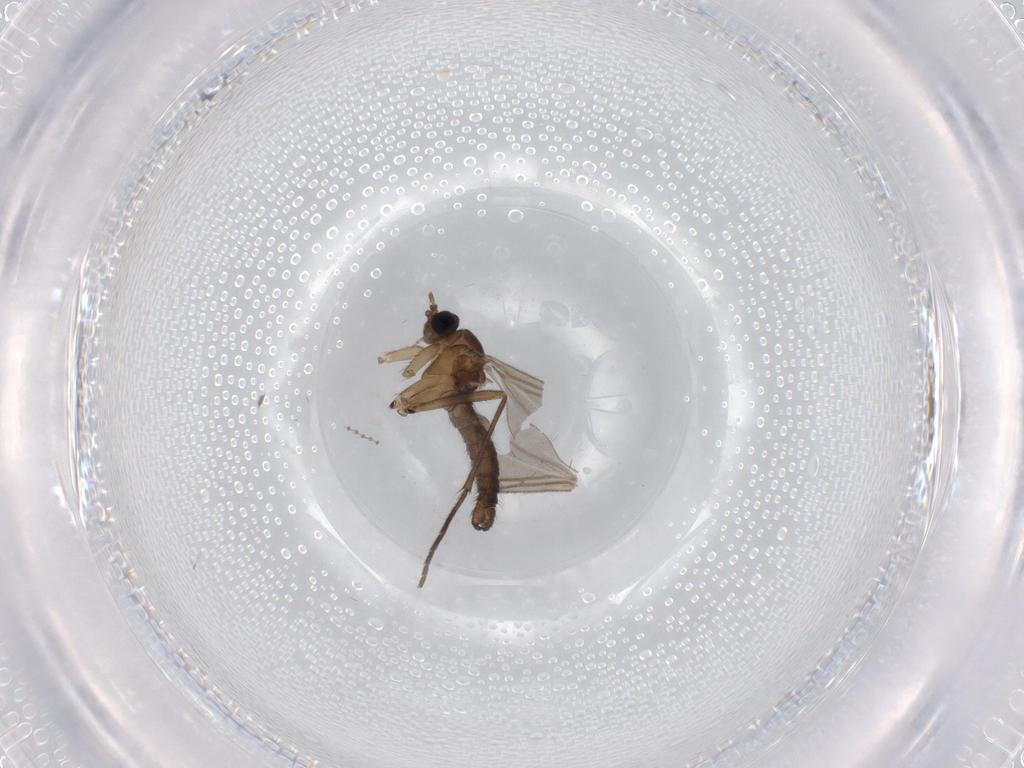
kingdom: Animalia
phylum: Arthropoda
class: Insecta
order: Diptera
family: Sciaridae
